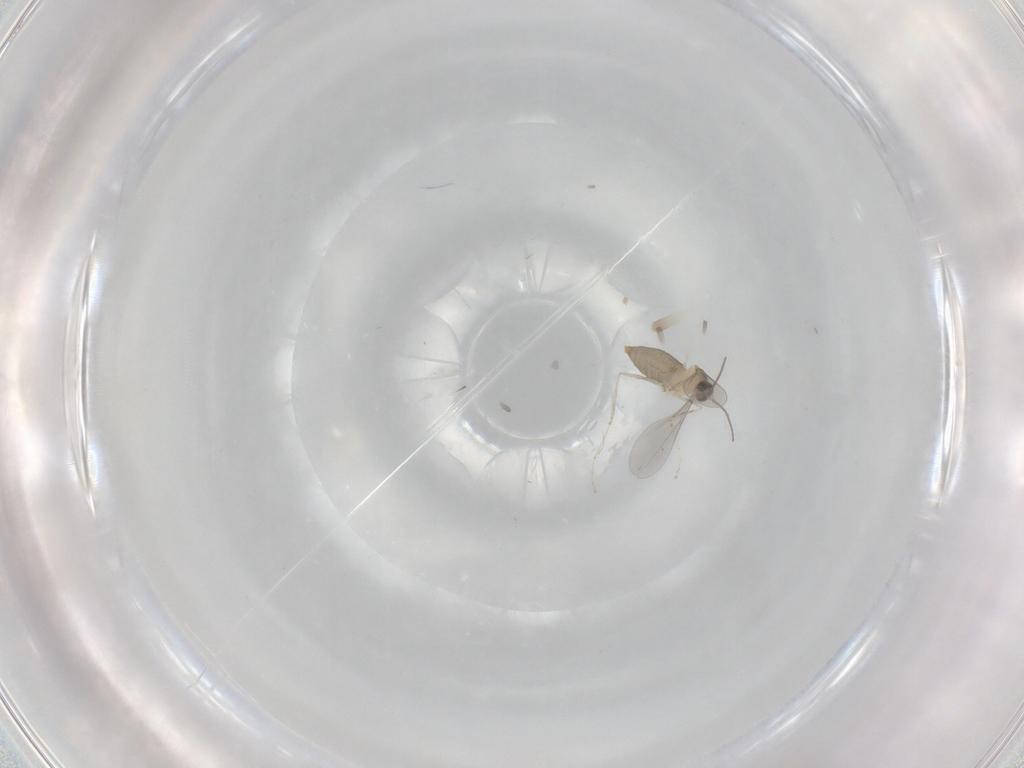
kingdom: Animalia
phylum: Arthropoda
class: Insecta
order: Diptera
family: Cecidomyiidae
